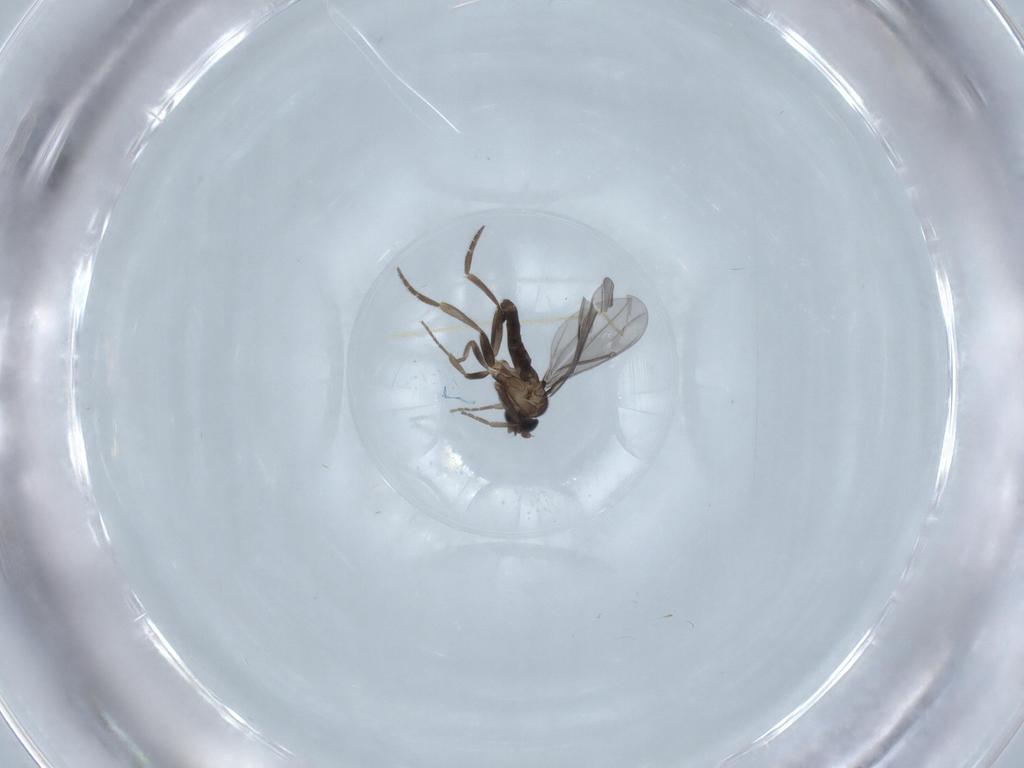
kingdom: Animalia
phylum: Arthropoda
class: Insecta
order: Diptera
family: Phoridae
